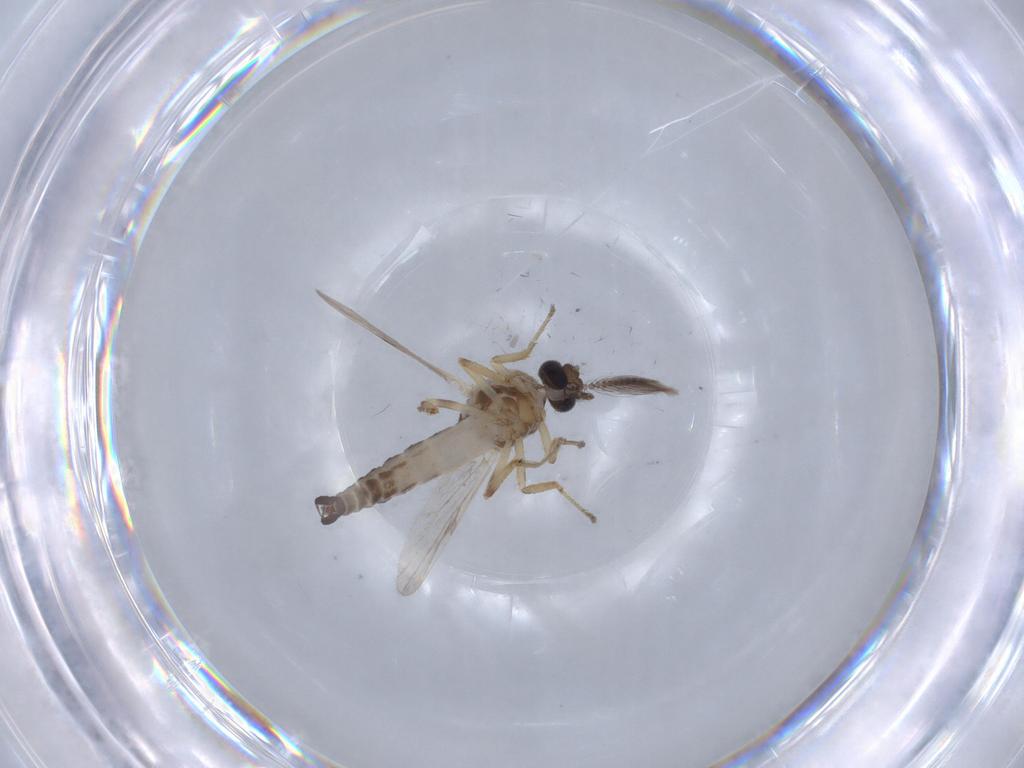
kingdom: Animalia
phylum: Arthropoda
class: Insecta
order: Diptera
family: Ceratopogonidae
